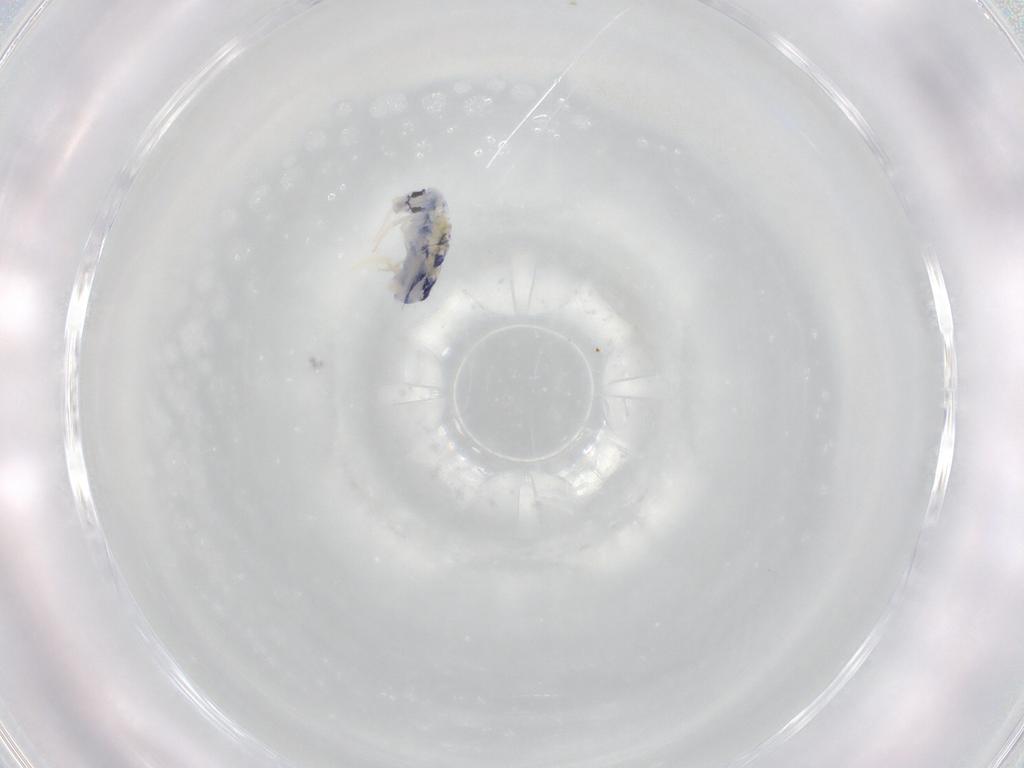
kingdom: Animalia
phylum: Arthropoda
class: Collembola
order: Entomobryomorpha
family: Entomobryidae
